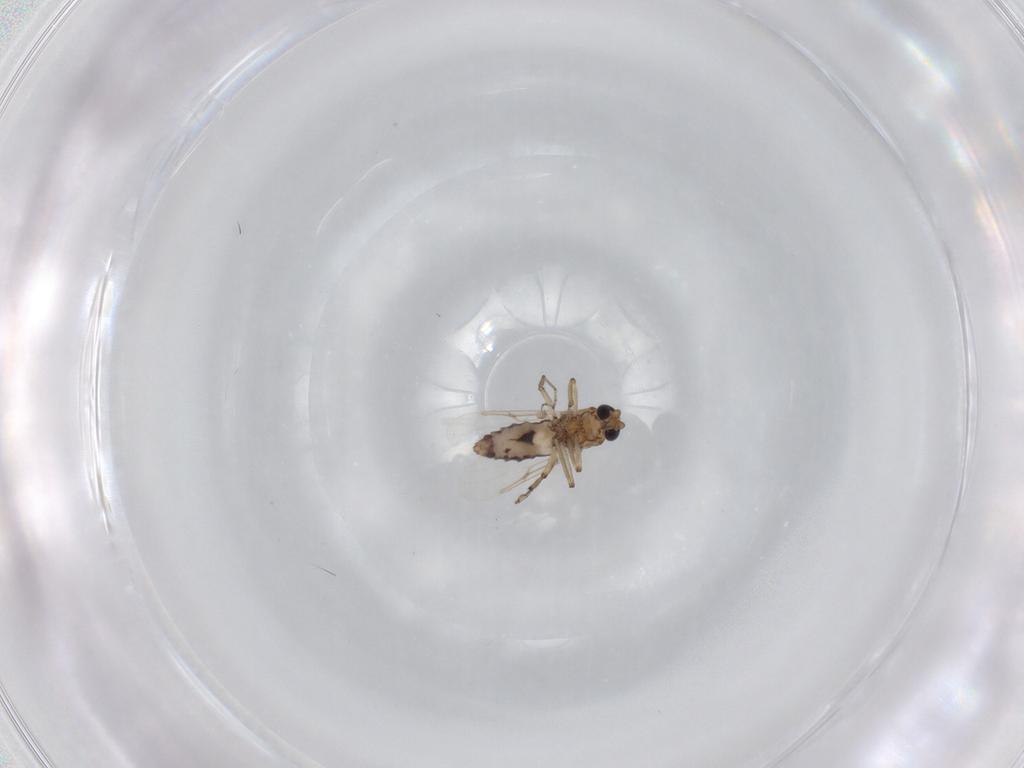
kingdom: Animalia
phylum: Arthropoda
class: Insecta
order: Diptera
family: Ceratopogonidae
